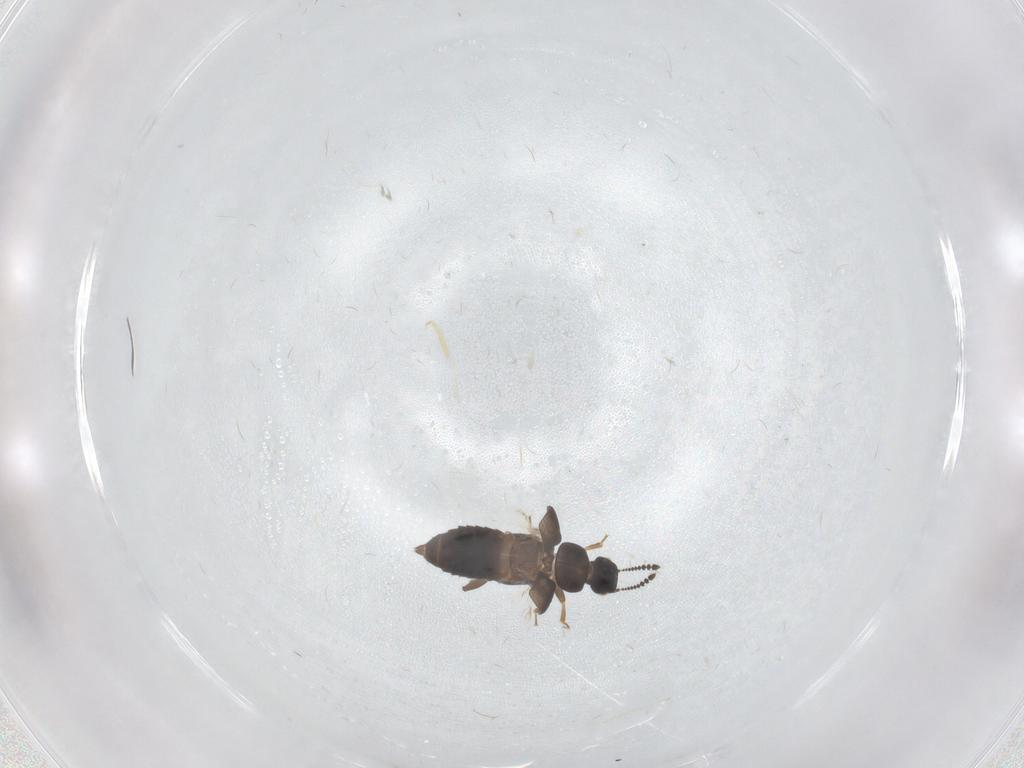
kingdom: Animalia
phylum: Arthropoda
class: Insecta
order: Coleoptera
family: Staphylinidae
